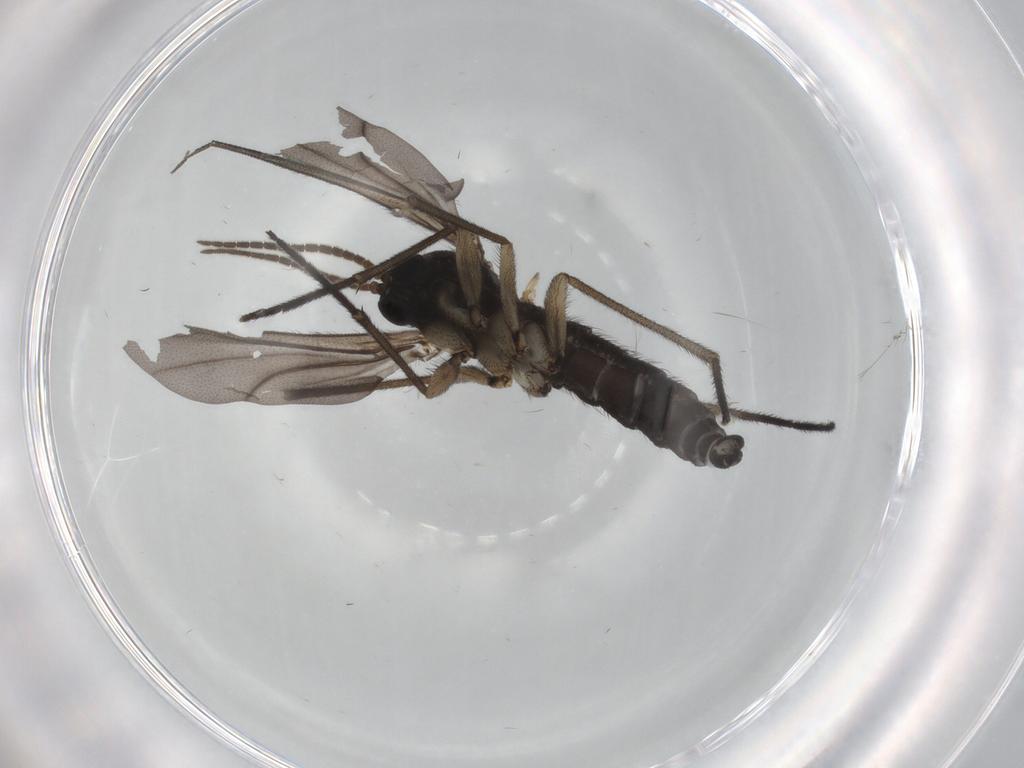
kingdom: Animalia
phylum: Arthropoda
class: Insecta
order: Diptera
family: Sciaridae
